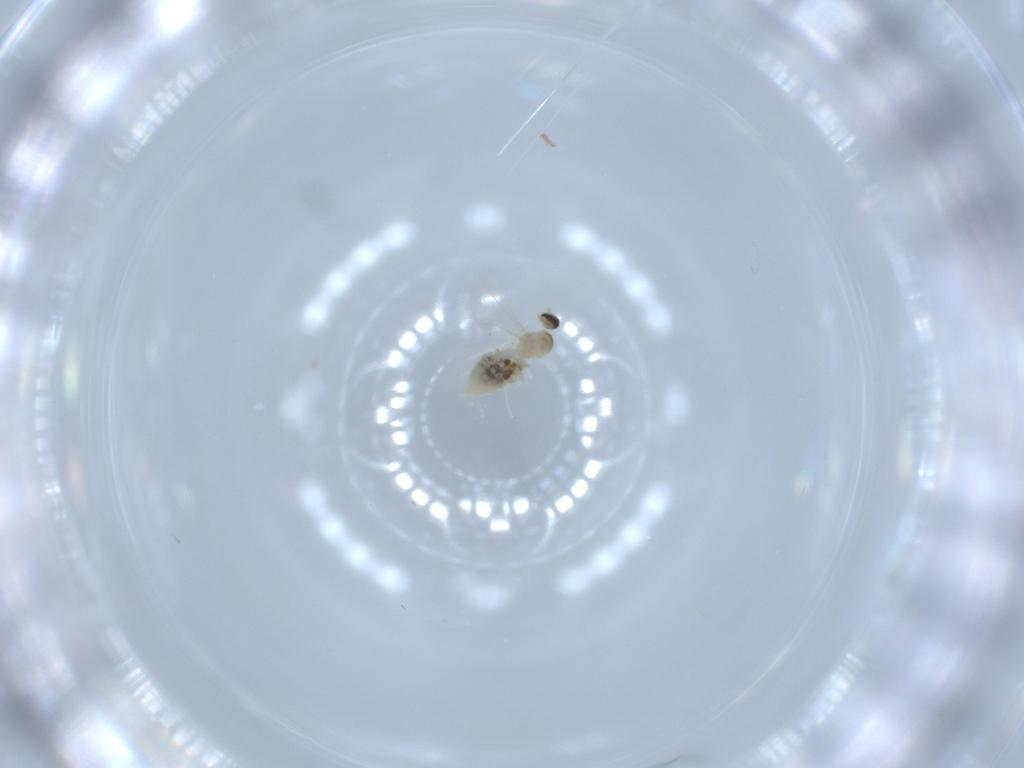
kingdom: Animalia
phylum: Arthropoda
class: Insecta
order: Diptera
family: Pipunculidae
